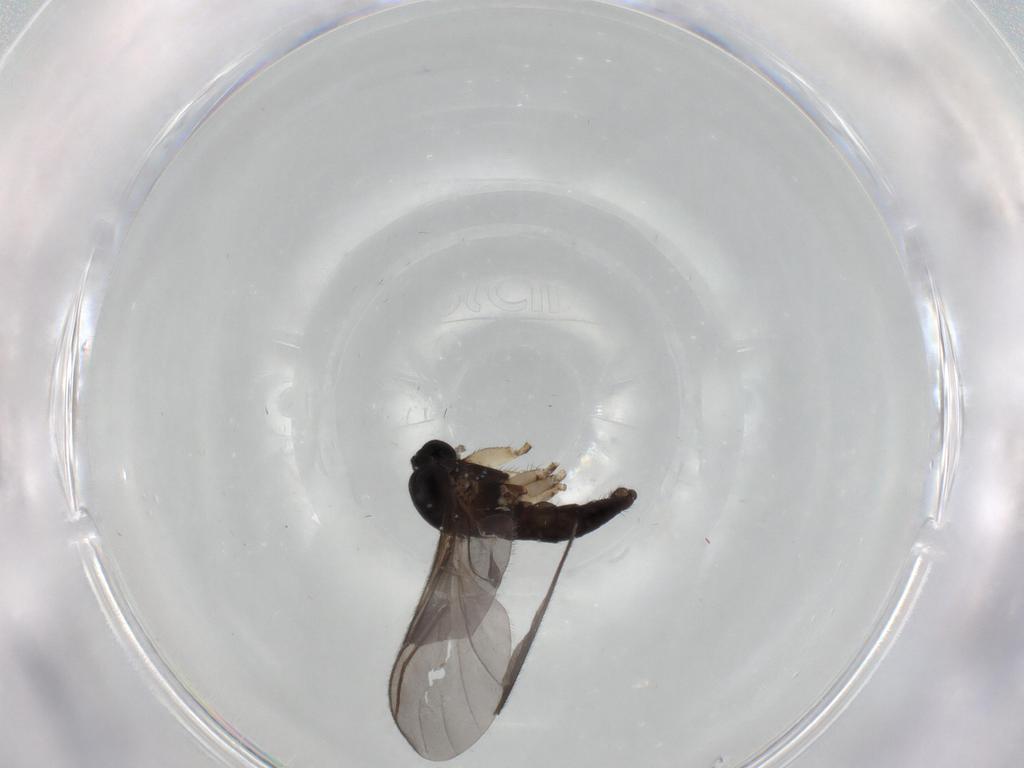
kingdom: Animalia
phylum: Arthropoda
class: Insecta
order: Diptera
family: Sciaridae
